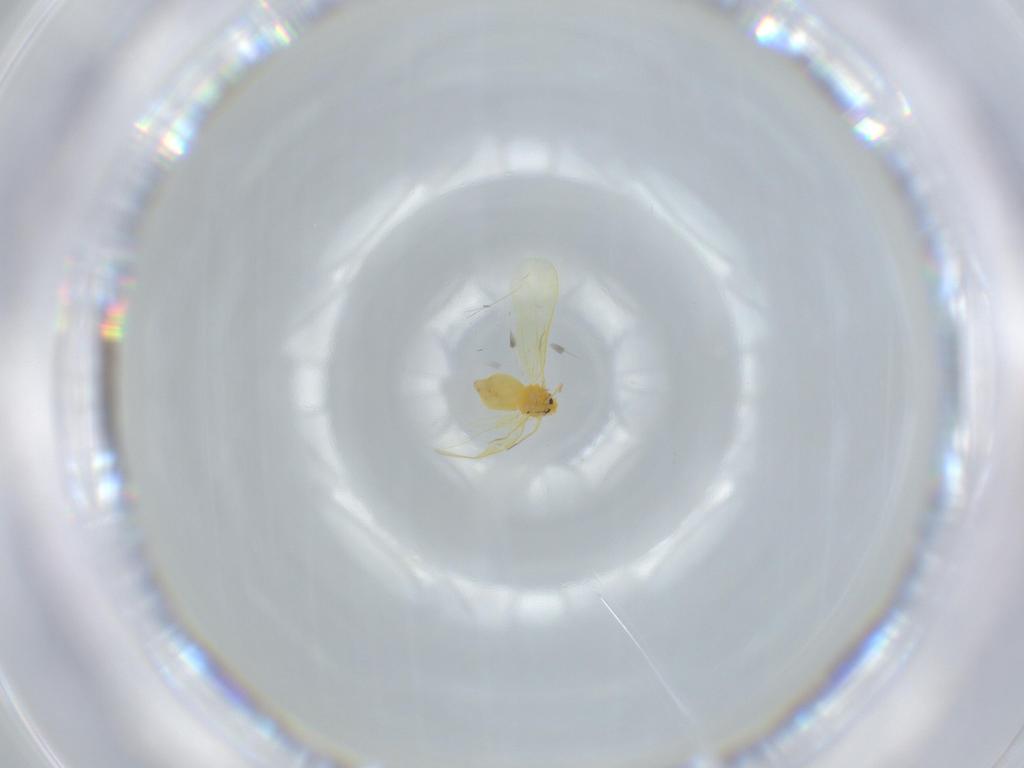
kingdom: Animalia
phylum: Arthropoda
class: Insecta
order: Hemiptera
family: Aleyrodidae
